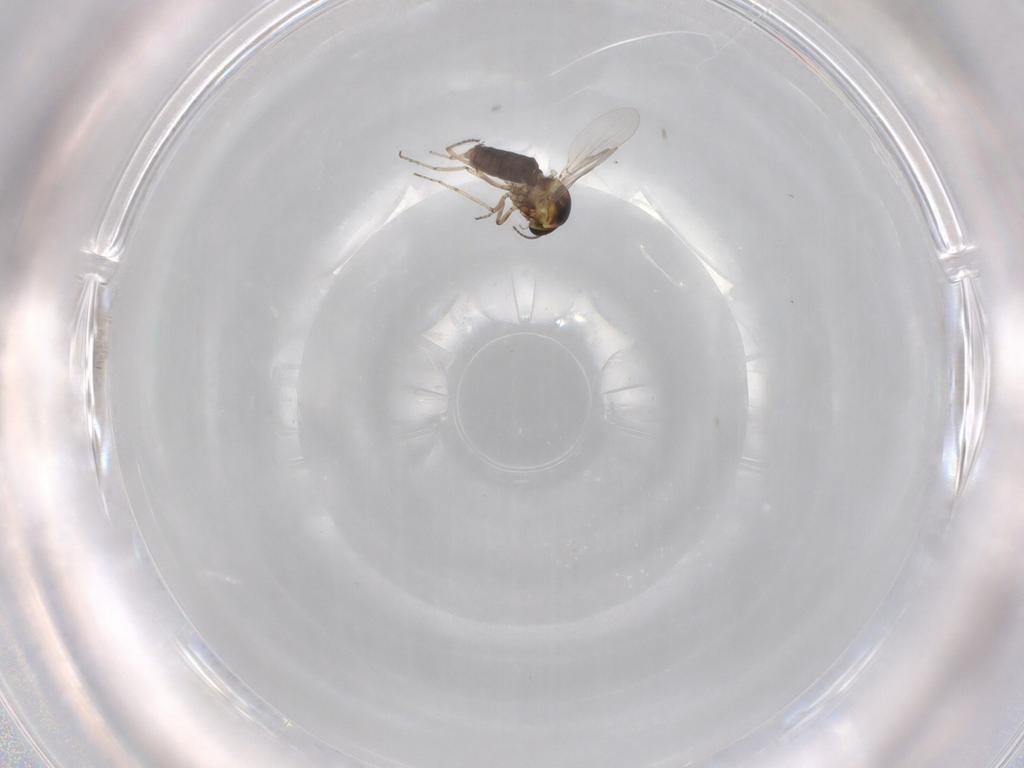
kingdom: Animalia
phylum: Arthropoda
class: Insecta
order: Diptera
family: Ceratopogonidae
